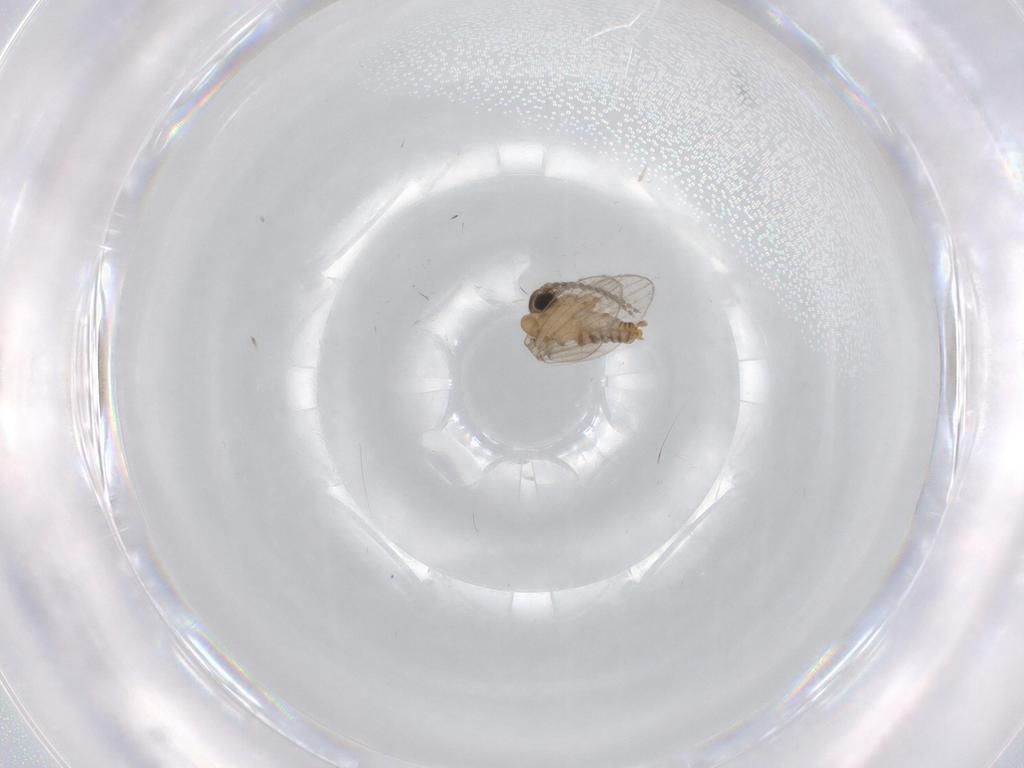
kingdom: Animalia
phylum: Arthropoda
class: Insecta
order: Diptera
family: Psychodidae
